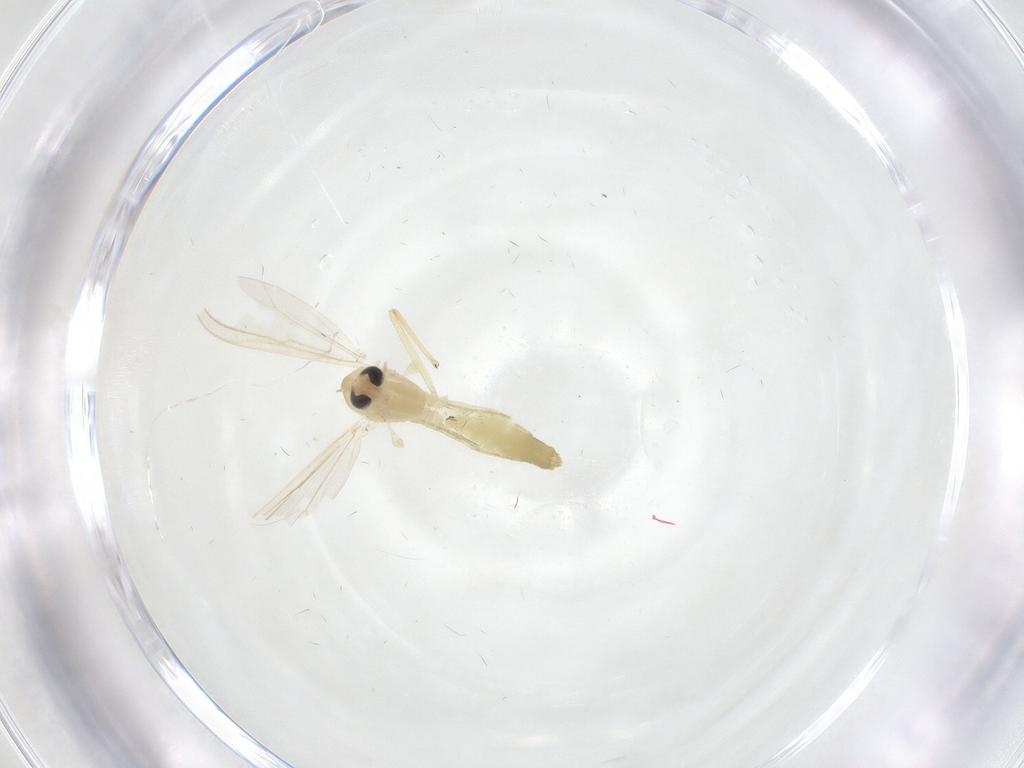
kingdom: Animalia
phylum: Arthropoda
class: Insecta
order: Diptera
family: Chironomidae
